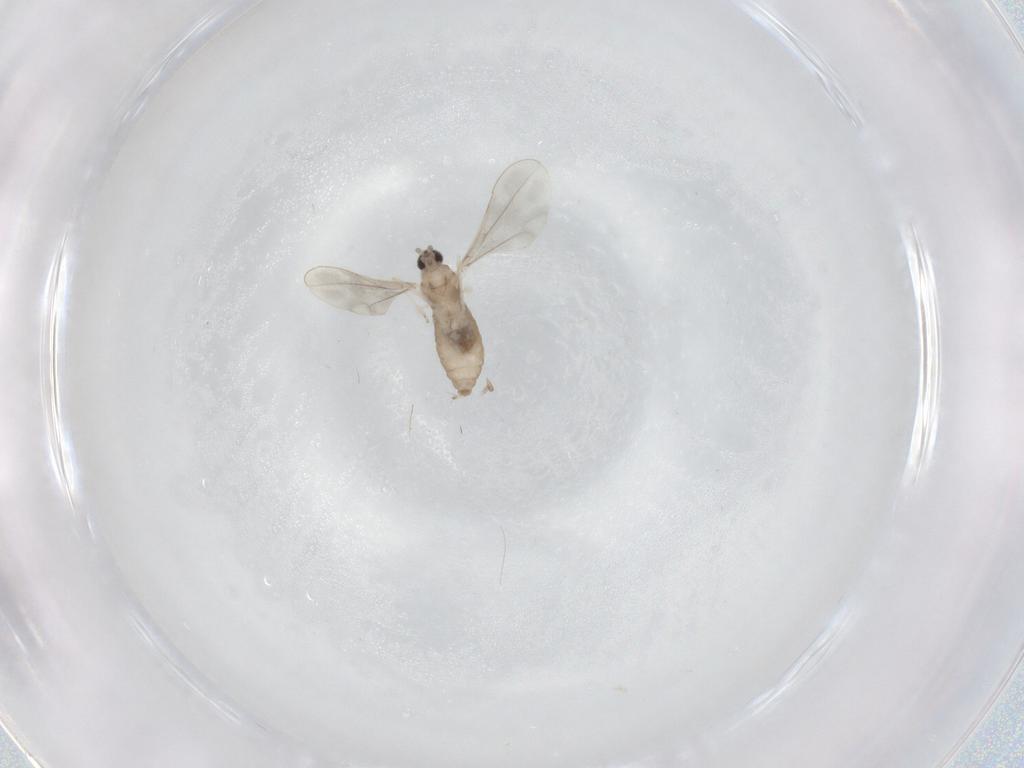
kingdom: Animalia
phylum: Arthropoda
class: Insecta
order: Diptera
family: Cecidomyiidae
